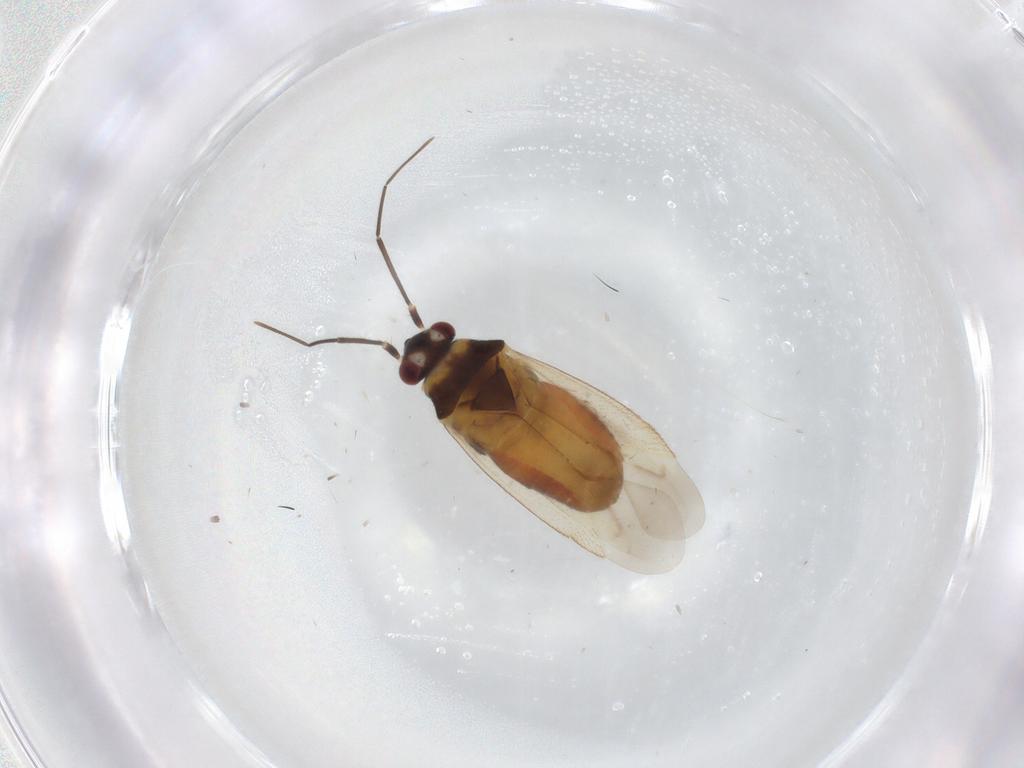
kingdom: Animalia
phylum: Arthropoda
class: Insecta
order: Hemiptera
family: Miridae
